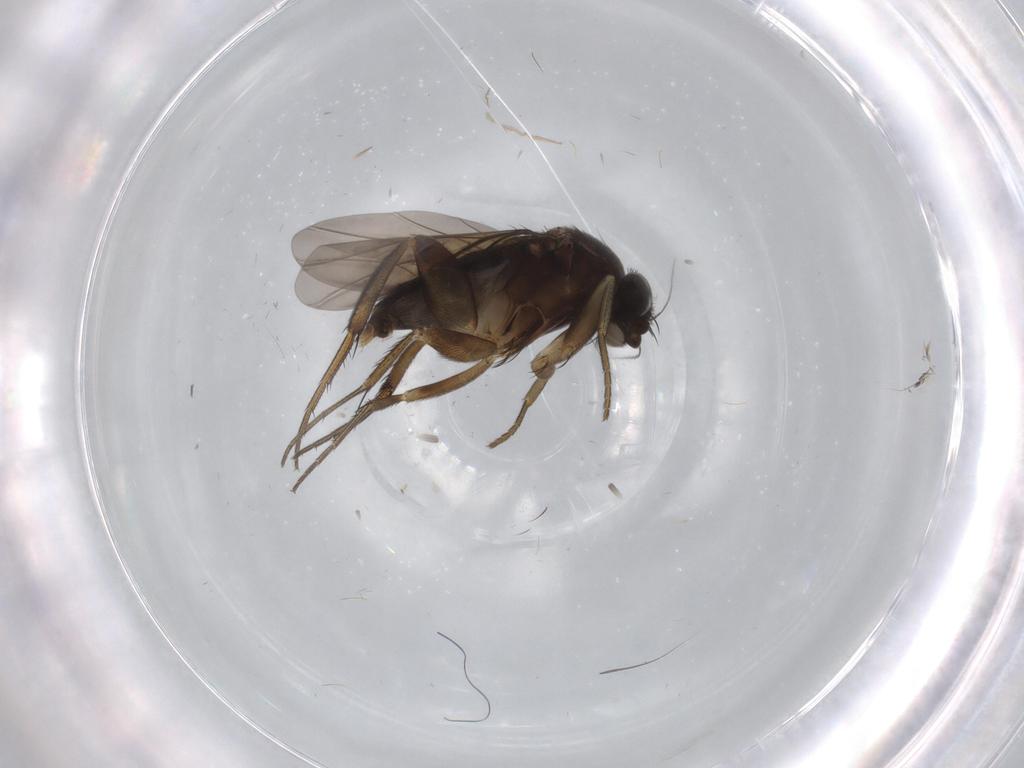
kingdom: Animalia
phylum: Arthropoda
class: Insecta
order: Diptera
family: Phoridae
